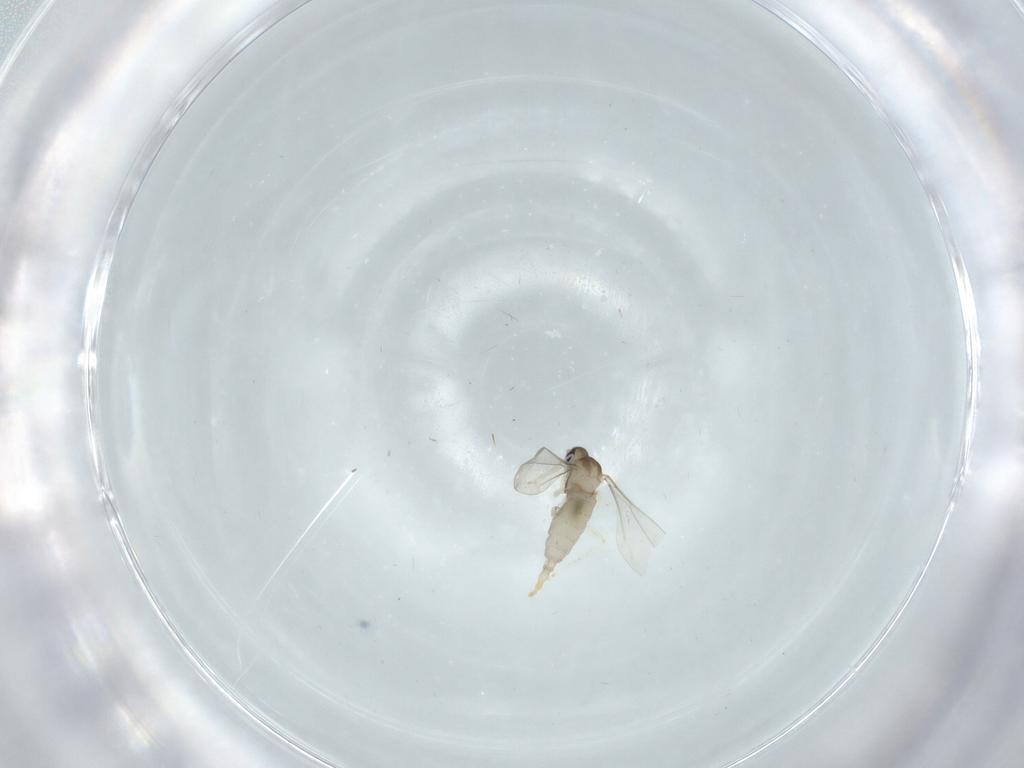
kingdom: Animalia
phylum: Arthropoda
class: Insecta
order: Diptera
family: Cecidomyiidae
